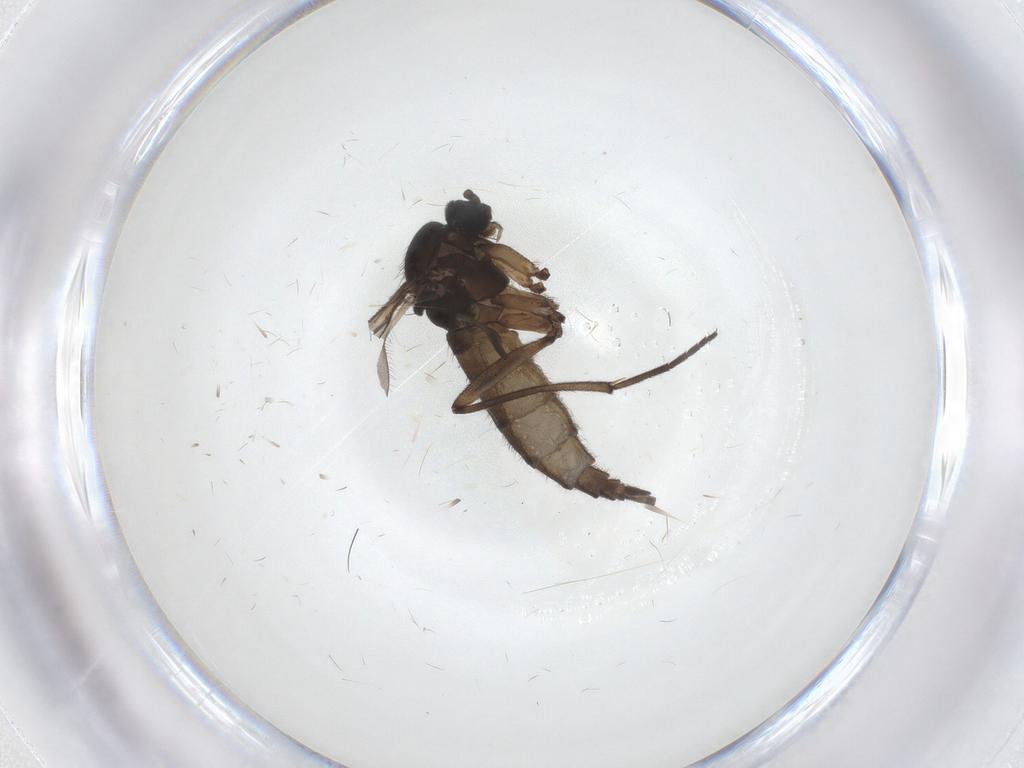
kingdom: Animalia
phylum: Arthropoda
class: Insecta
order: Diptera
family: Sciaridae
